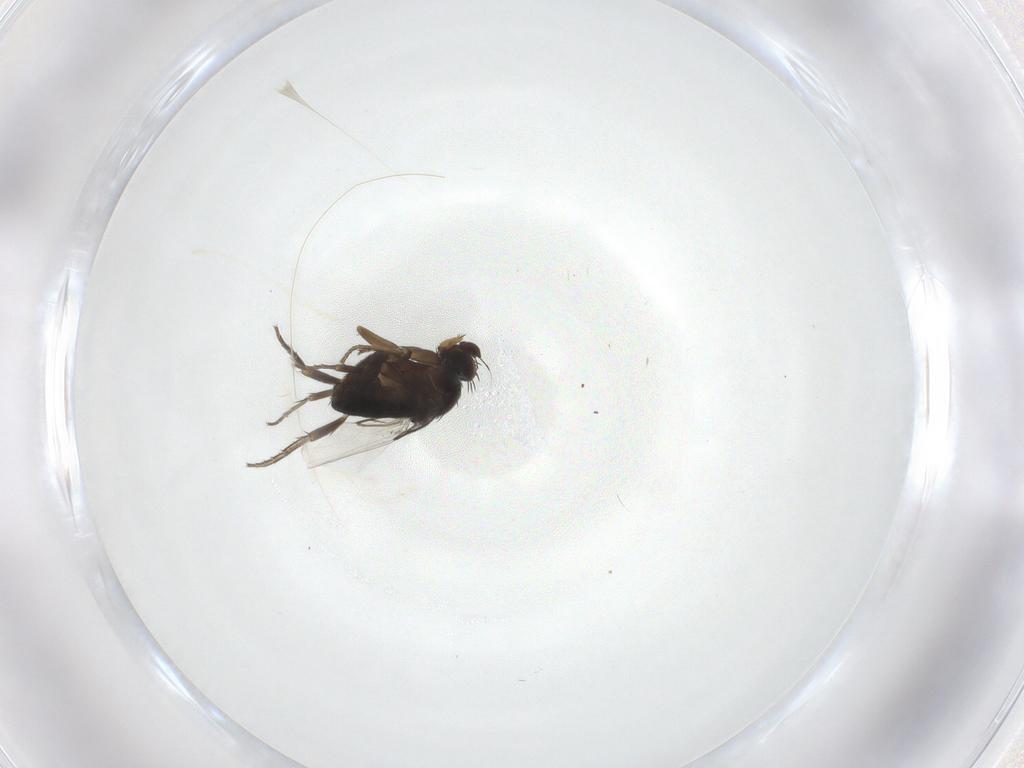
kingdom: Animalia
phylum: Arthropoda
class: Insecta
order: Diptera
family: Phoridae
